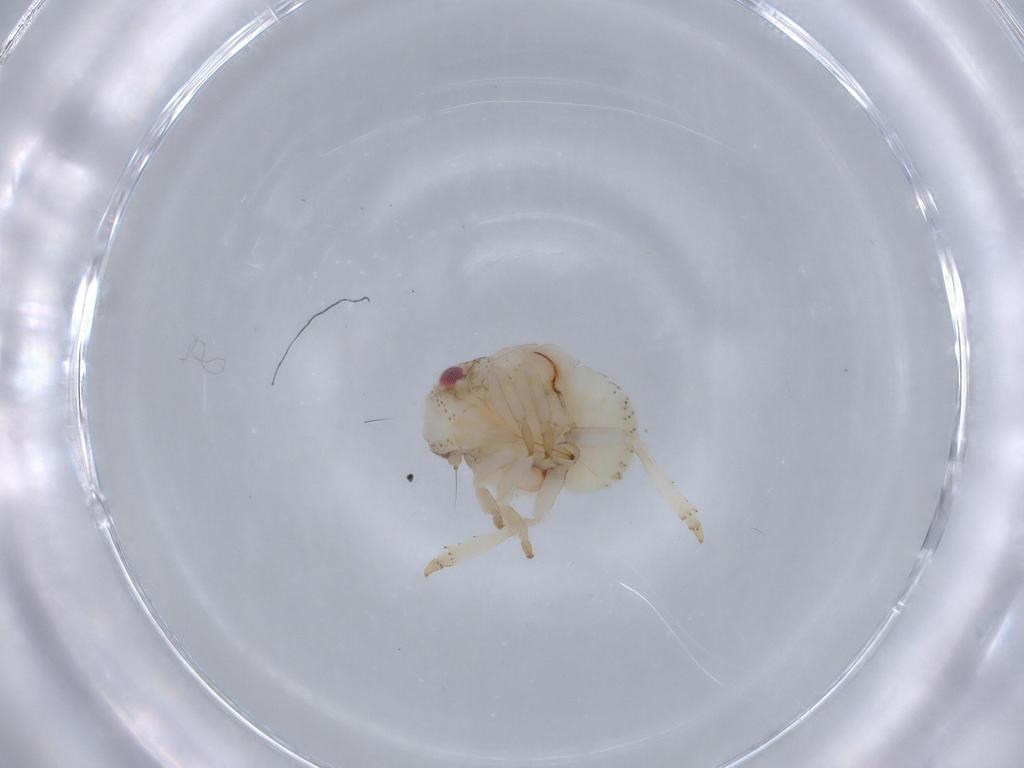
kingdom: Animalia
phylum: Arthropoda
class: Insecta
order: Hemiptera
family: Acanaloniidae
